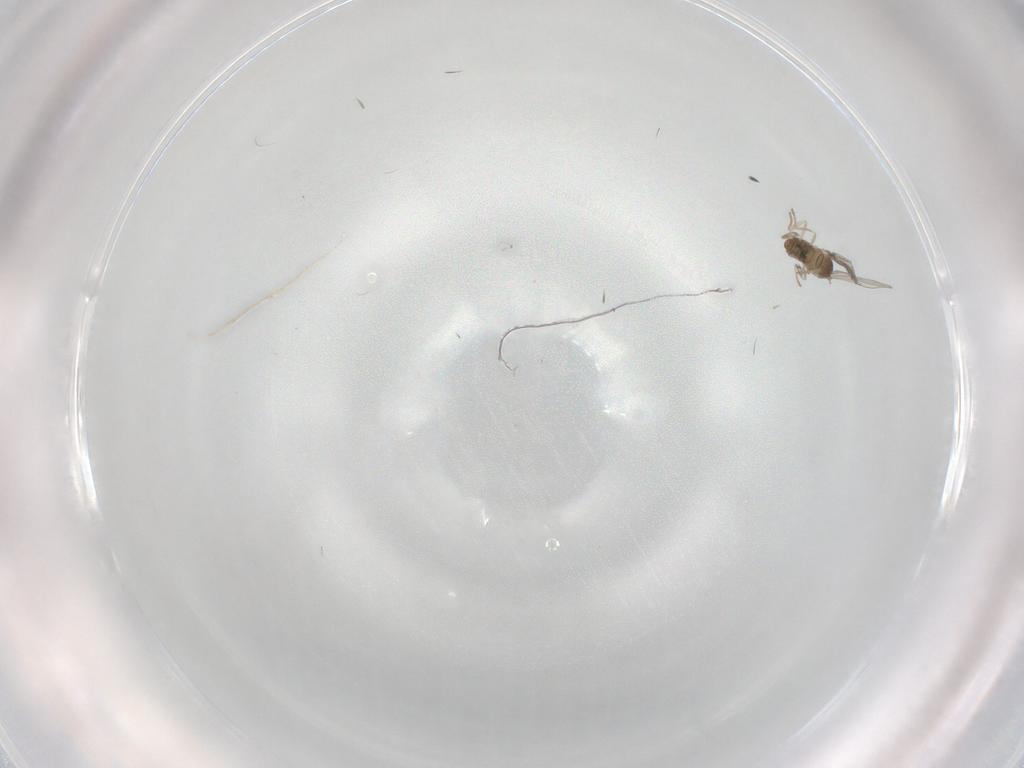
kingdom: Animalia
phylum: Arthropoda
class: Insecta
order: Diptera
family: Cecidomyiidae
